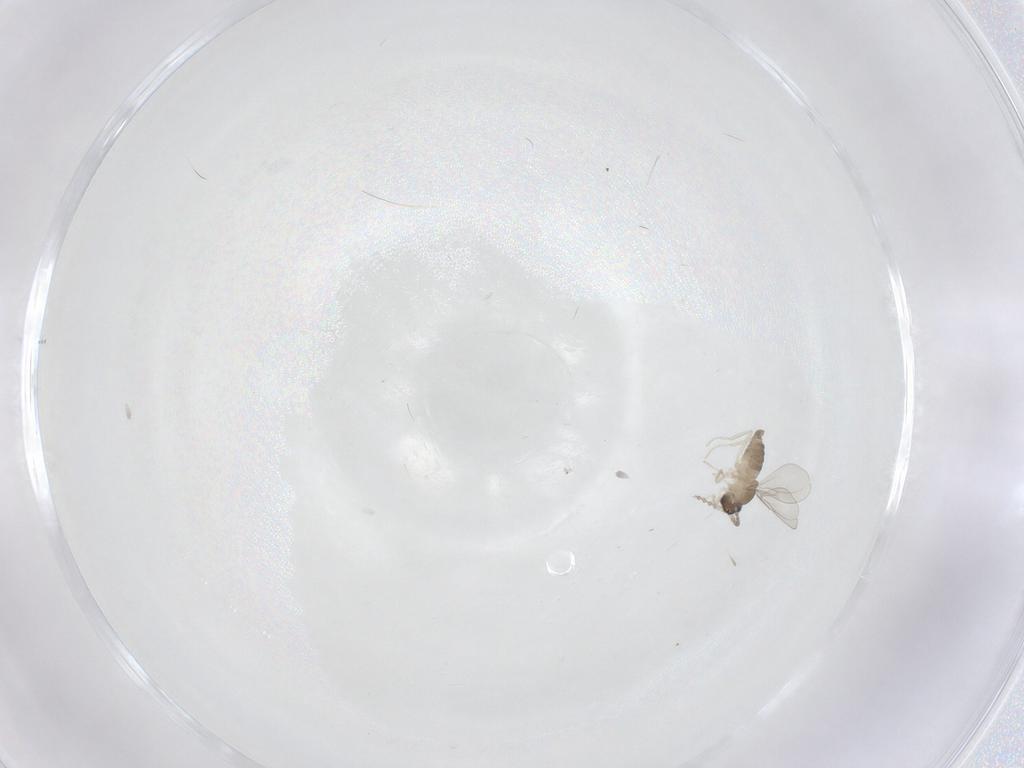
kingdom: Animalia
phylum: Arthropoda
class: Insecta
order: Diptera
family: Cecidomyiidae
